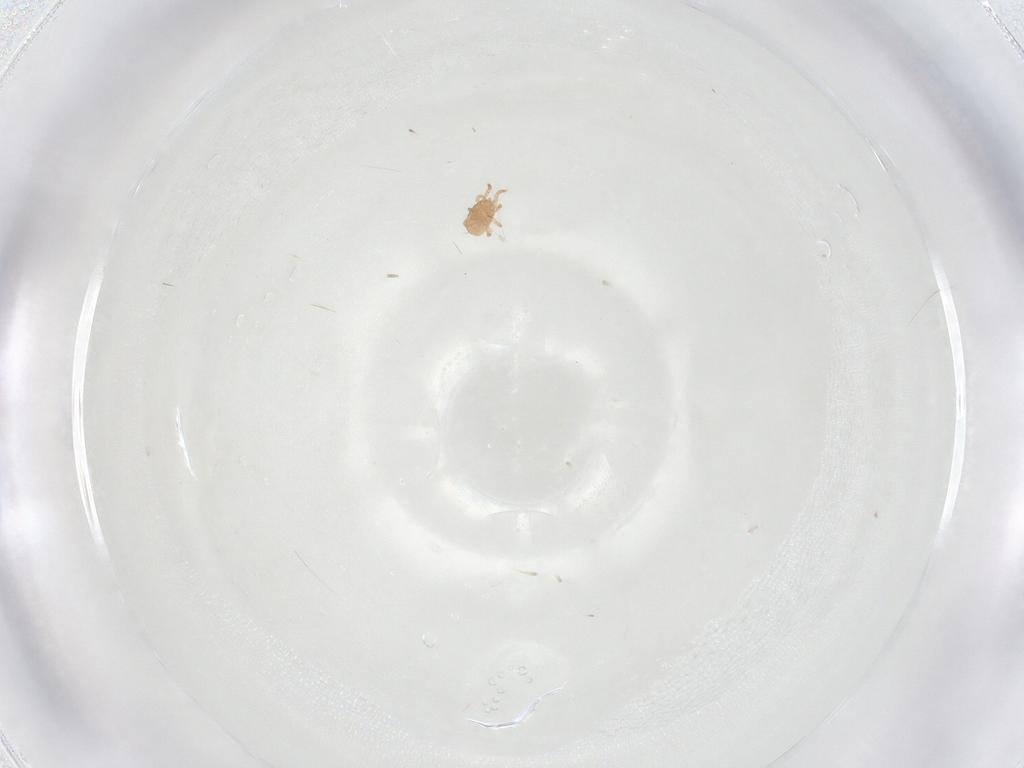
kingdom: Animalia
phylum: Arthropoda
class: Arachnida
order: Mesostigmata
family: Ameroseiidae
